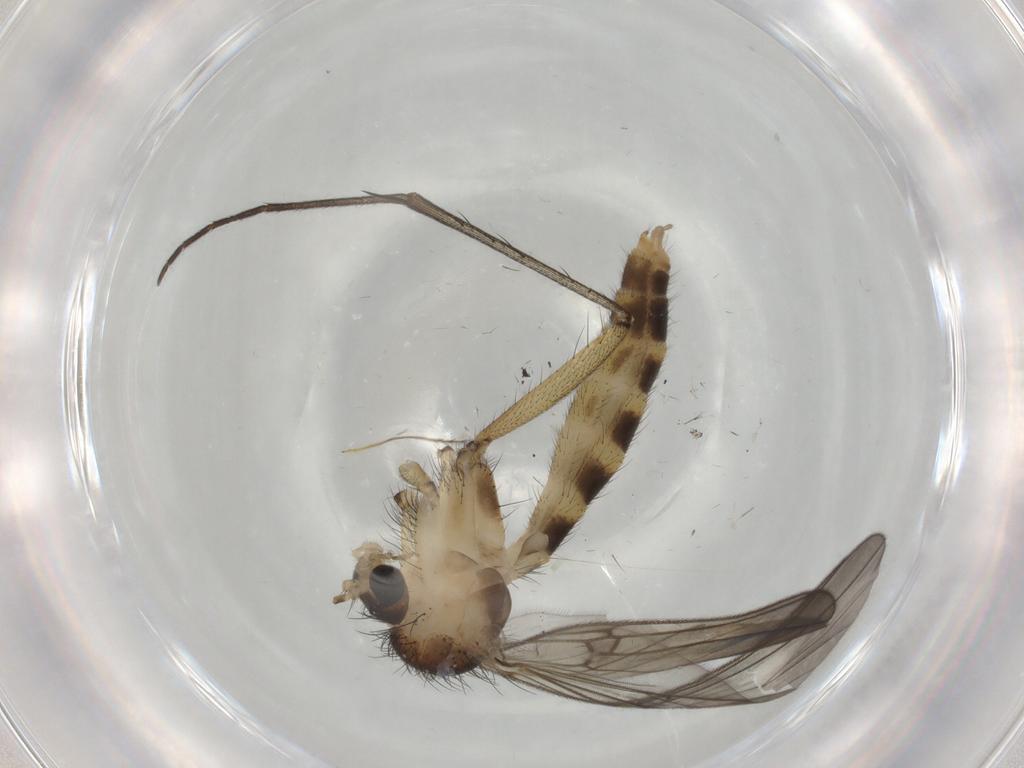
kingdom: Animalia
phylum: Arthropoda
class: Insecta
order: Diptera
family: Mycetophilidae
